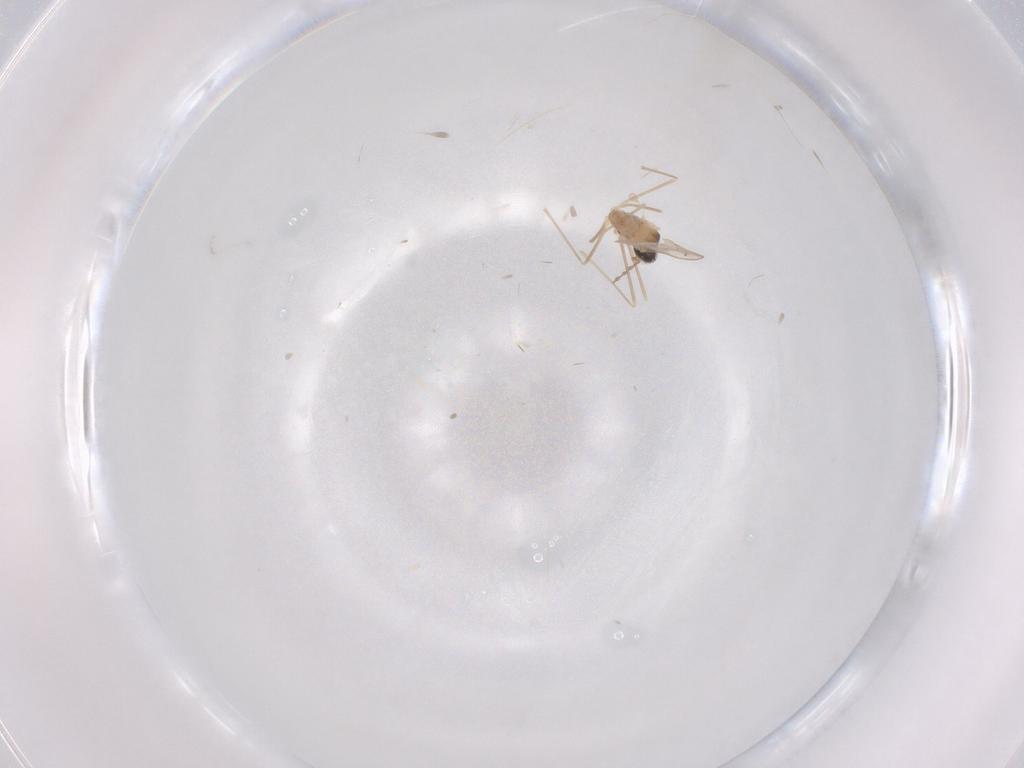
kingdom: Animalia
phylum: Arthropoda
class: Insecta
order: Diptera
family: Cecidomyiidae
